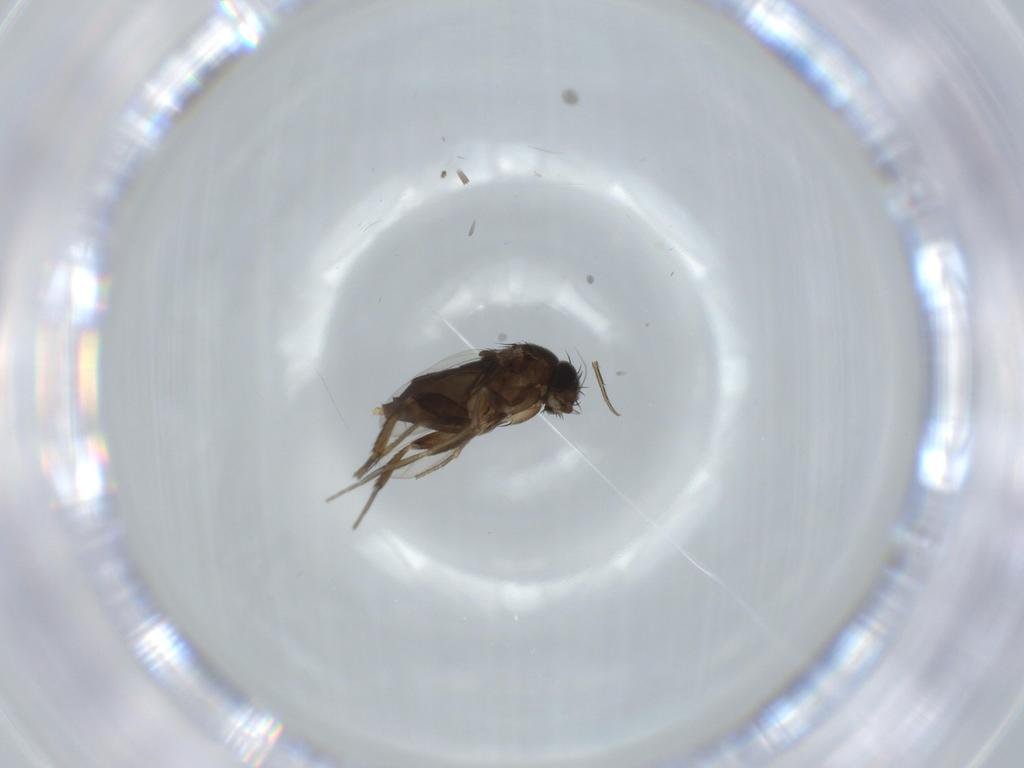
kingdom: Animalia
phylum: Arthropoda
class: Insecta
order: Diptera
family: Phoridae
